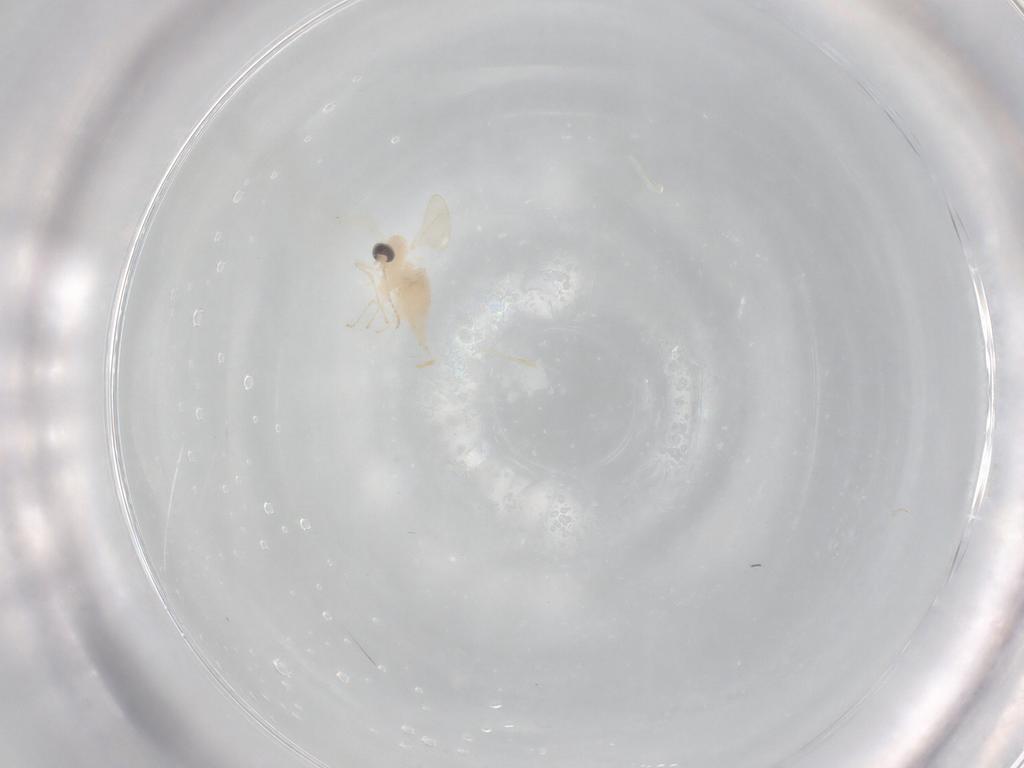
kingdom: Animalia
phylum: Arthropoda
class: Insecta
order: Diptera
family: Cecidomyiidae
